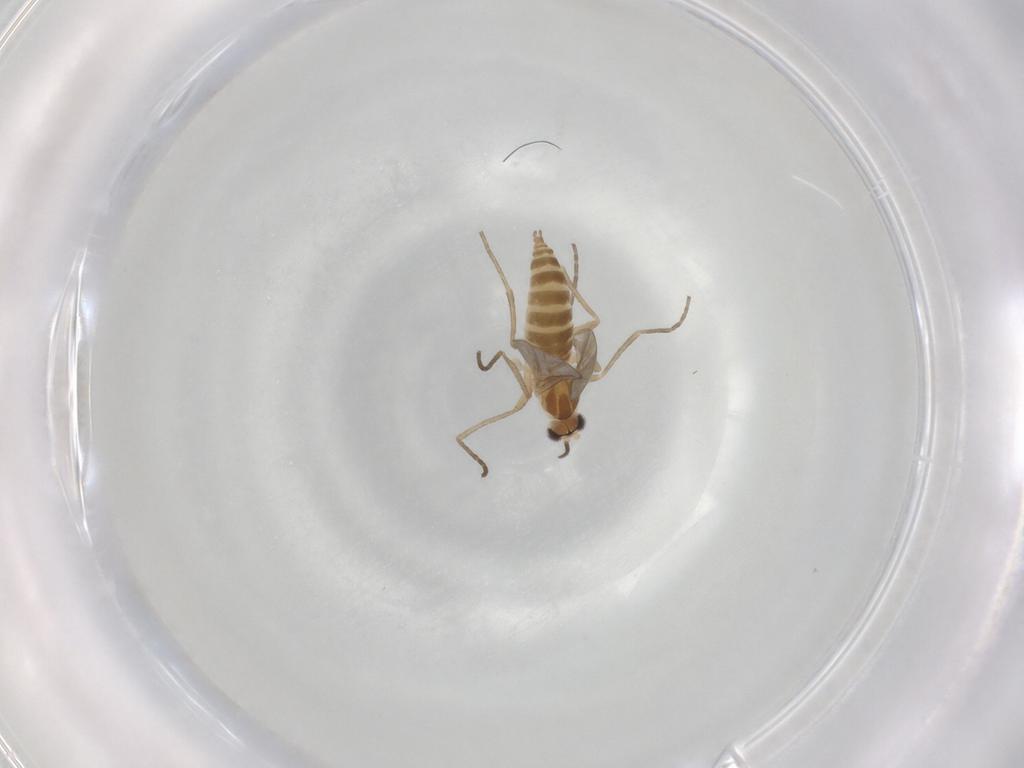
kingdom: Animalia
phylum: Arthropoda
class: Insecta
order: Diptera
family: Cecidomyiidae
